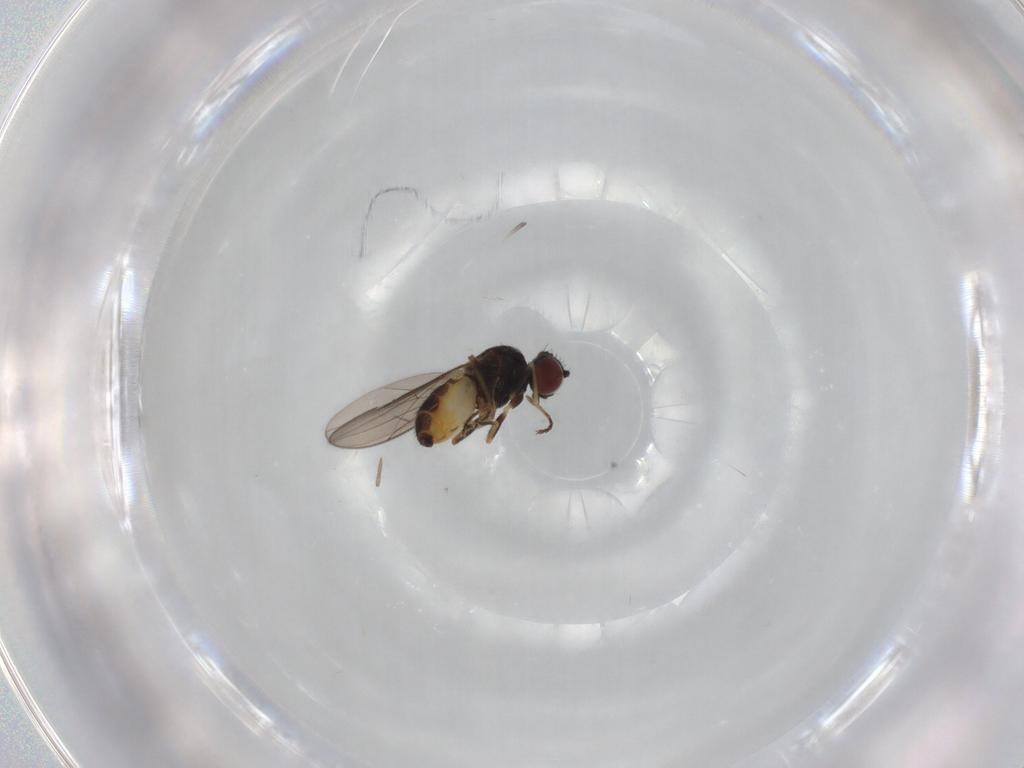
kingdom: Animalia
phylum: Arthropoda
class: Insecta
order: Diptera
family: Chloropidae
